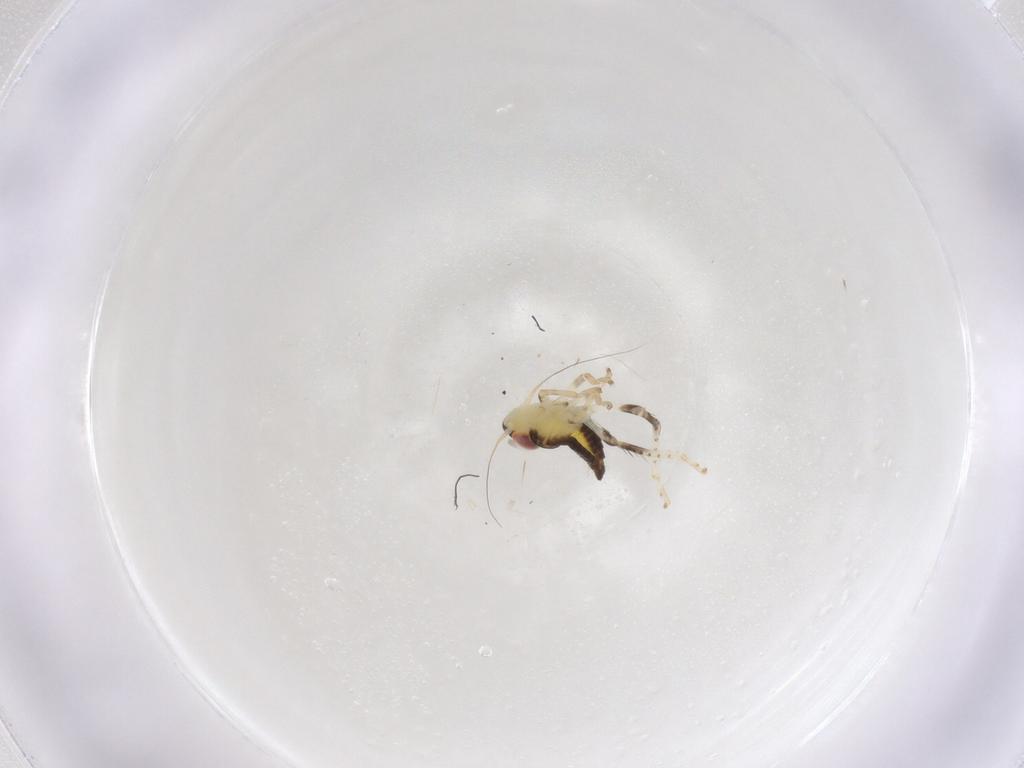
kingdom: Animalia
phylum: Arthropoda
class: Insecta
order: Hemiptera
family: Cicadellidae
